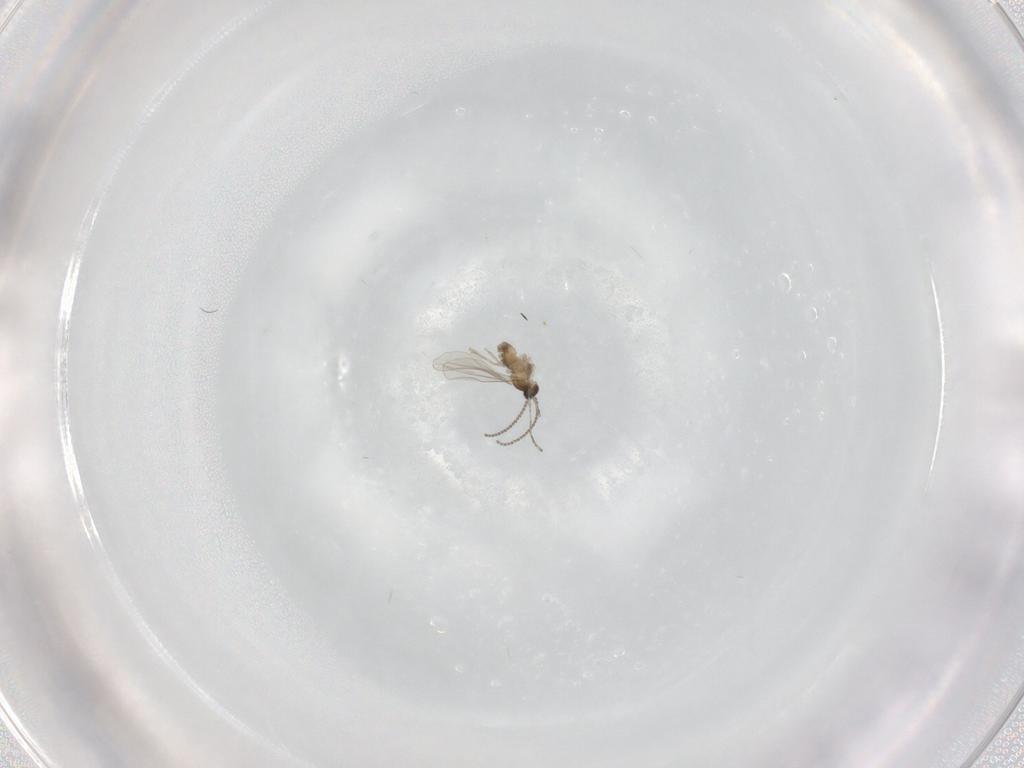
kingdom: Animalia
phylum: Arthropoda
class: Insecta
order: Diptera
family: Cecidomyiidae
